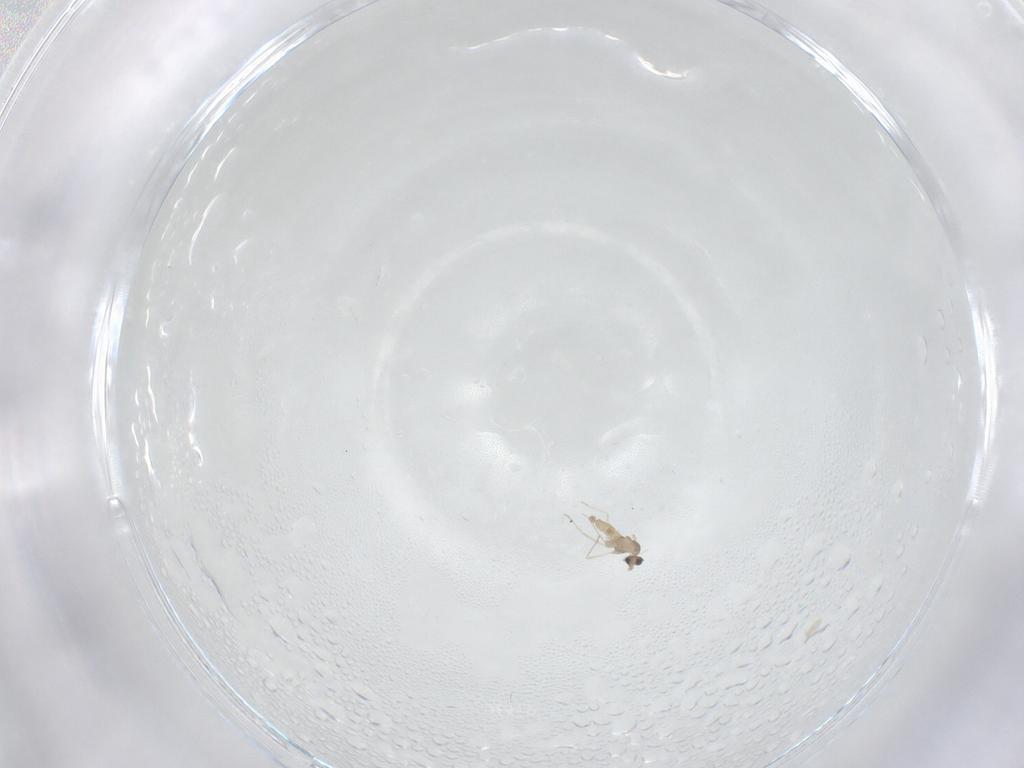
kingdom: Animalia
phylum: Arthropoda
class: Insecta
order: Diptera
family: Cecidomyiidae
